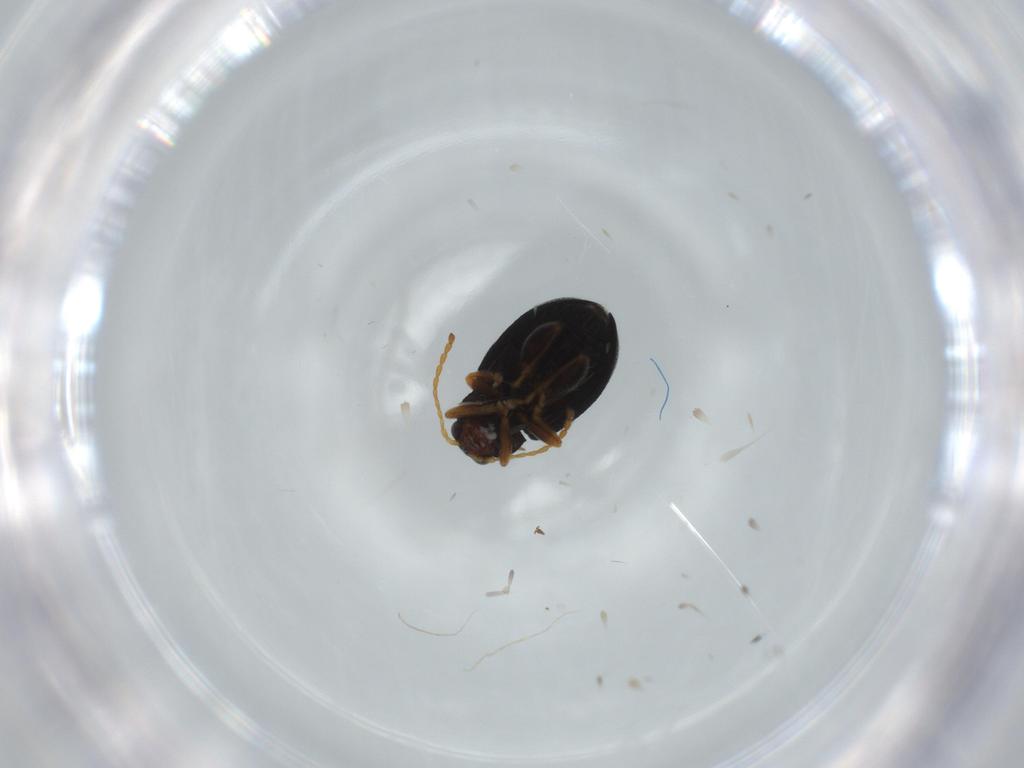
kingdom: Animalia
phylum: Arthropoda
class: Insecta
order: Coleoptera
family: Chrysomelidae
